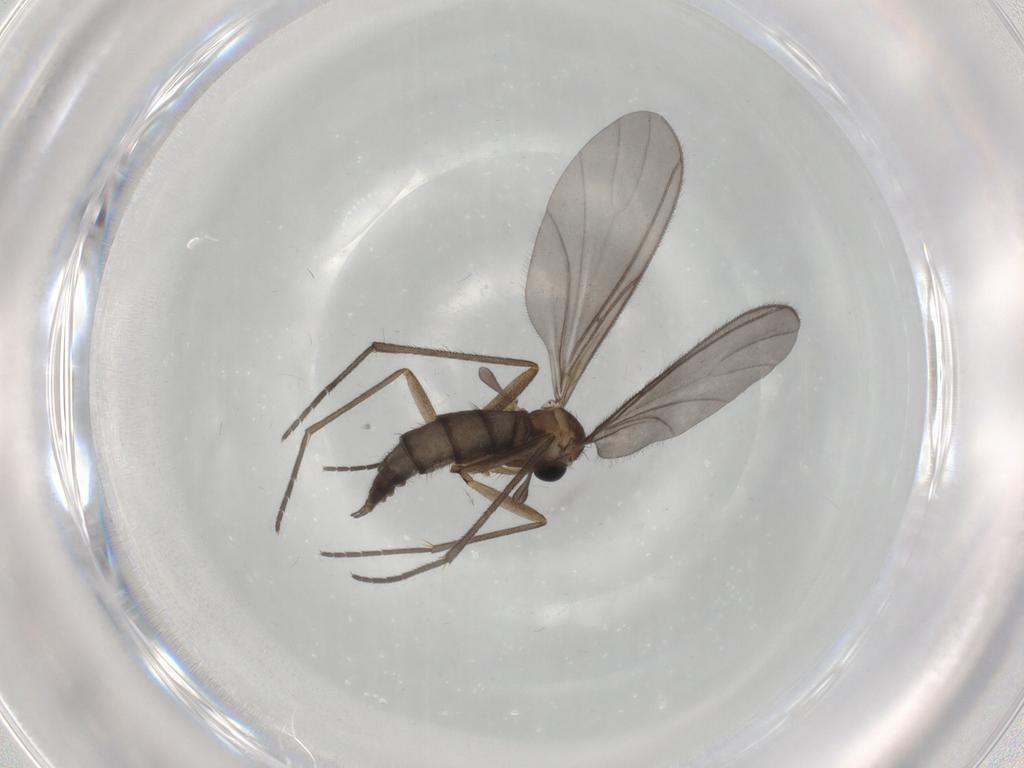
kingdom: Animalia
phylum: Arthropoda
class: Insecta
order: Diptera
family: Sciaridae
